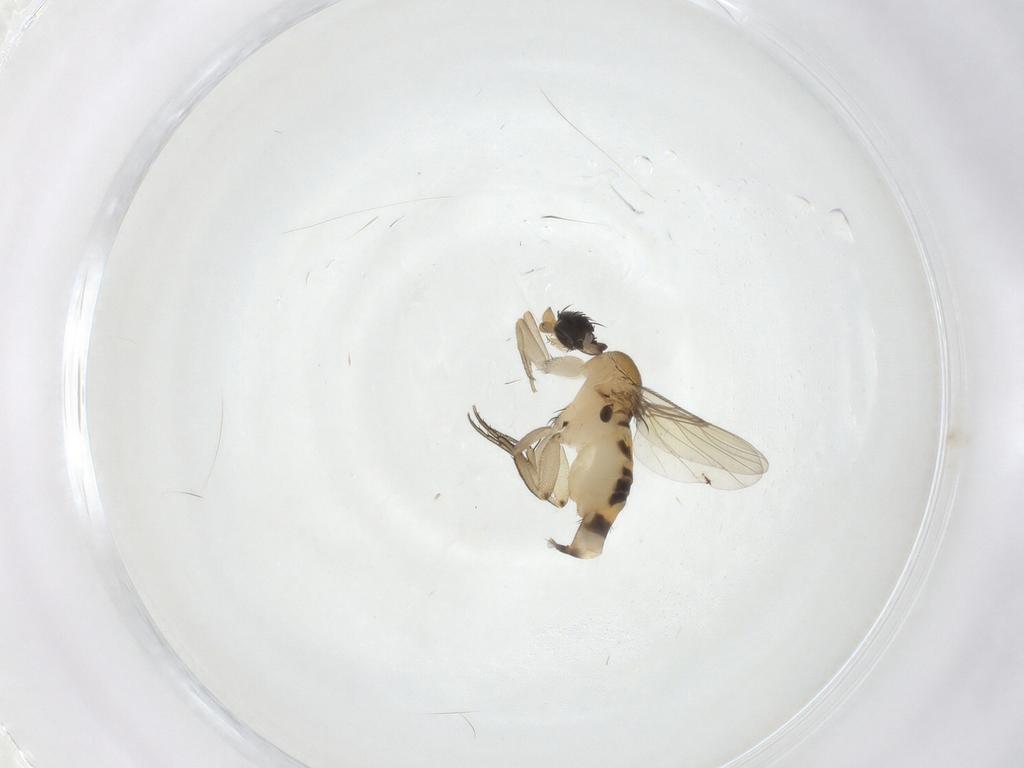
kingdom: Animalia
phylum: Arthropoda
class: Insecta
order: Diptera
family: Phoridae
